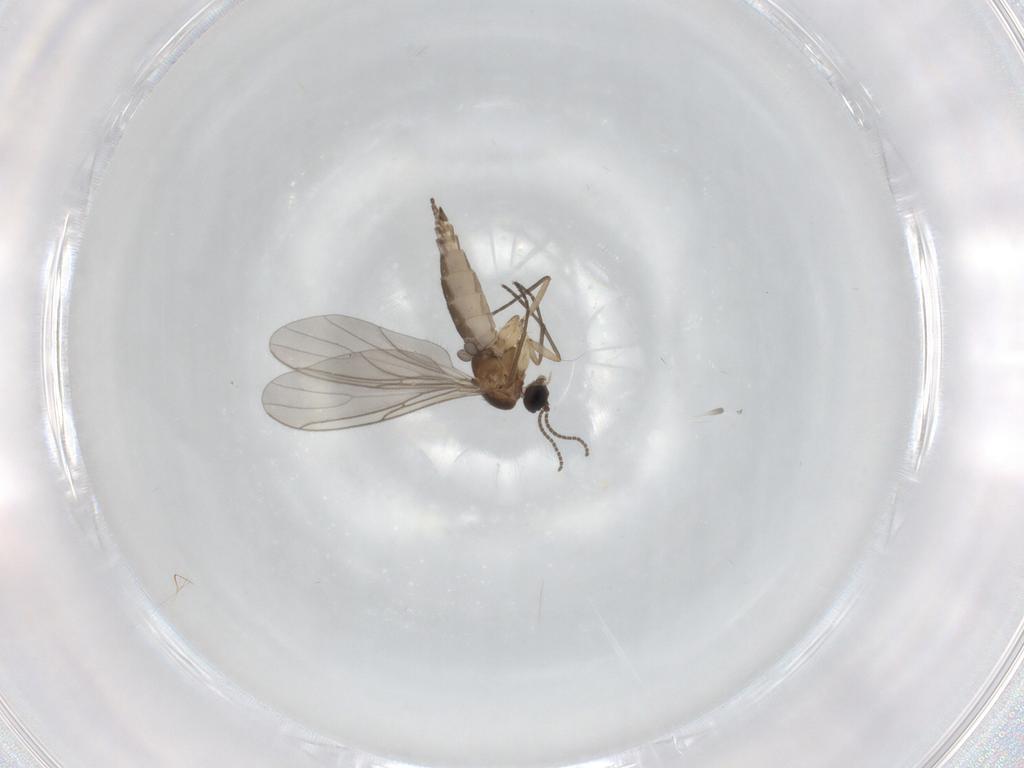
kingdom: Animalia
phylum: Arthropoda
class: Insecta
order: Diptera
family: Sciaridae
